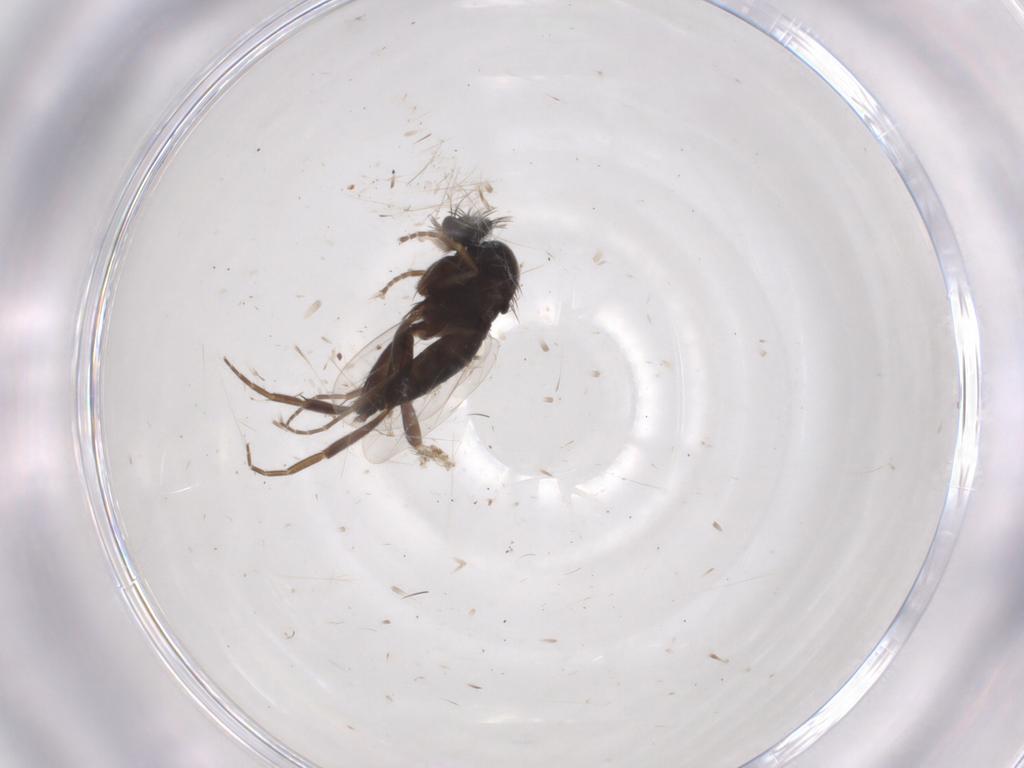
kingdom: Animalia
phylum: Arthropoda
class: Insecta
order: Diptera
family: Phoridae
